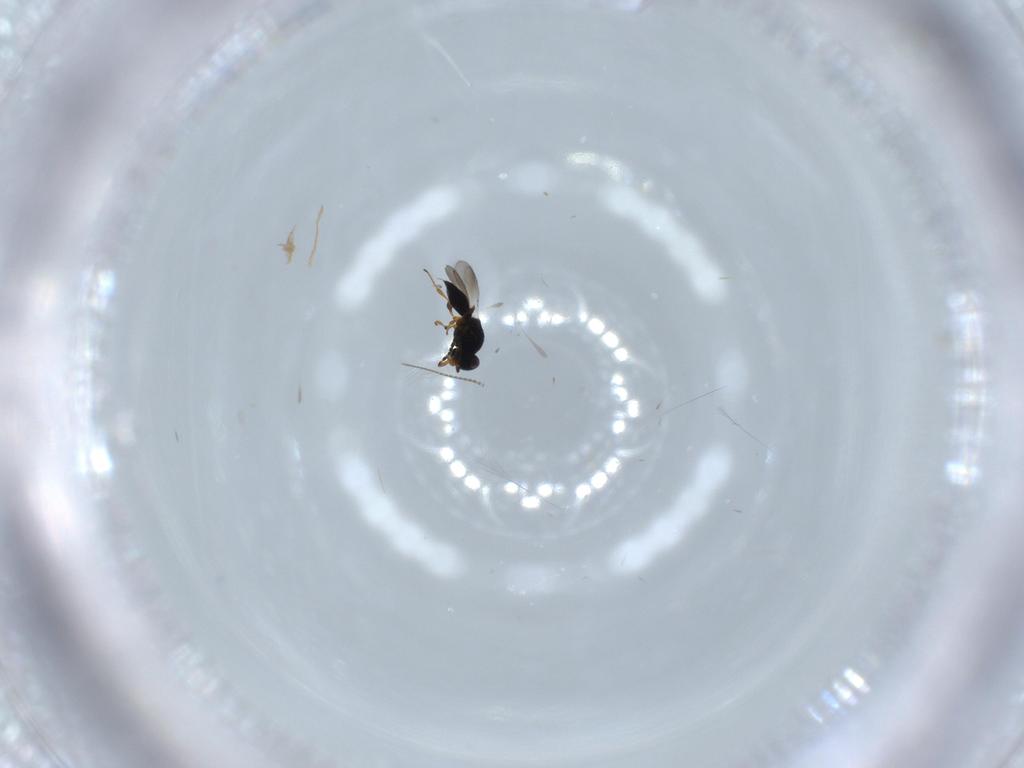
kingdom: Animalia
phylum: Arthropoda
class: Insecta
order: Hymenoptera
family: Platygastridae
